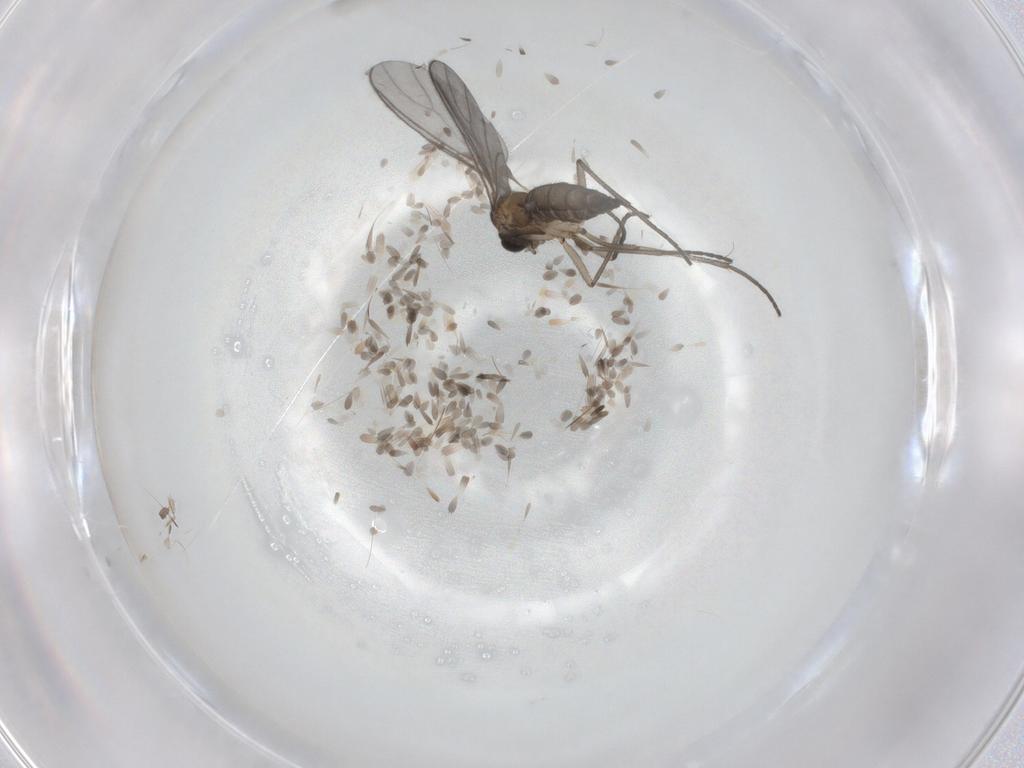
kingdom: Animalia
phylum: Arthropoda
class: Insecta
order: Diptera
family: Sciaridae
